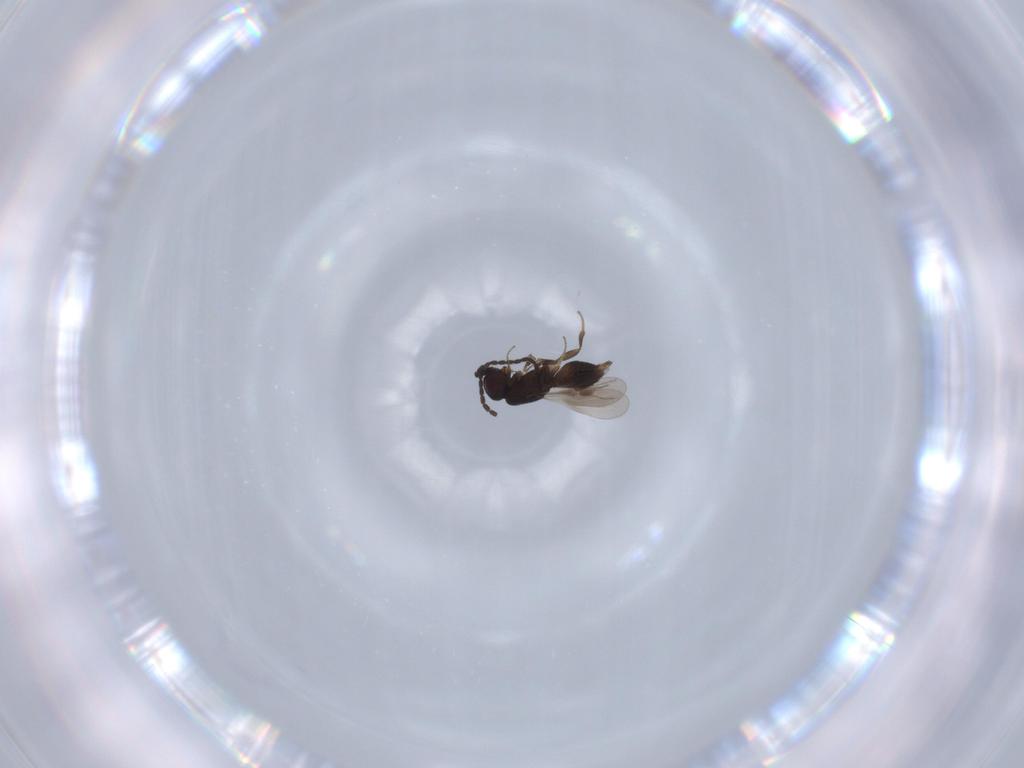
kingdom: Animalia
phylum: Arthropoda
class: Insecta
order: Hymenoptera
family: Megaspilidae
